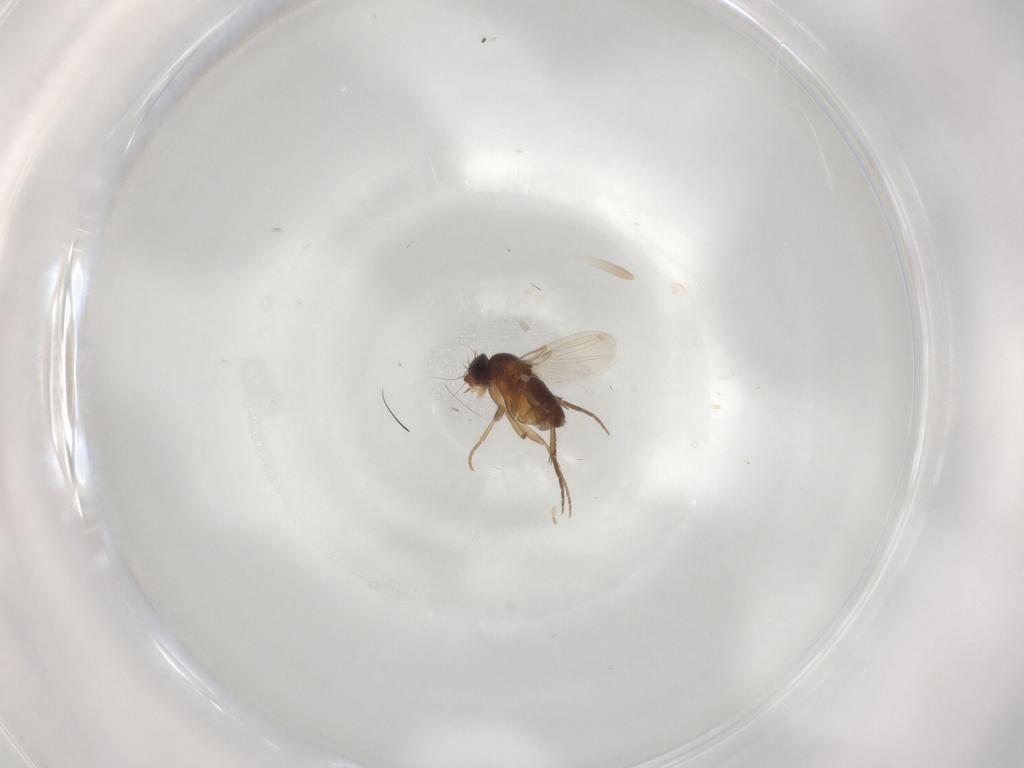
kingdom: Animalia
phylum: Arthropoda
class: Insecta
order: Diptera
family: Phoridae
